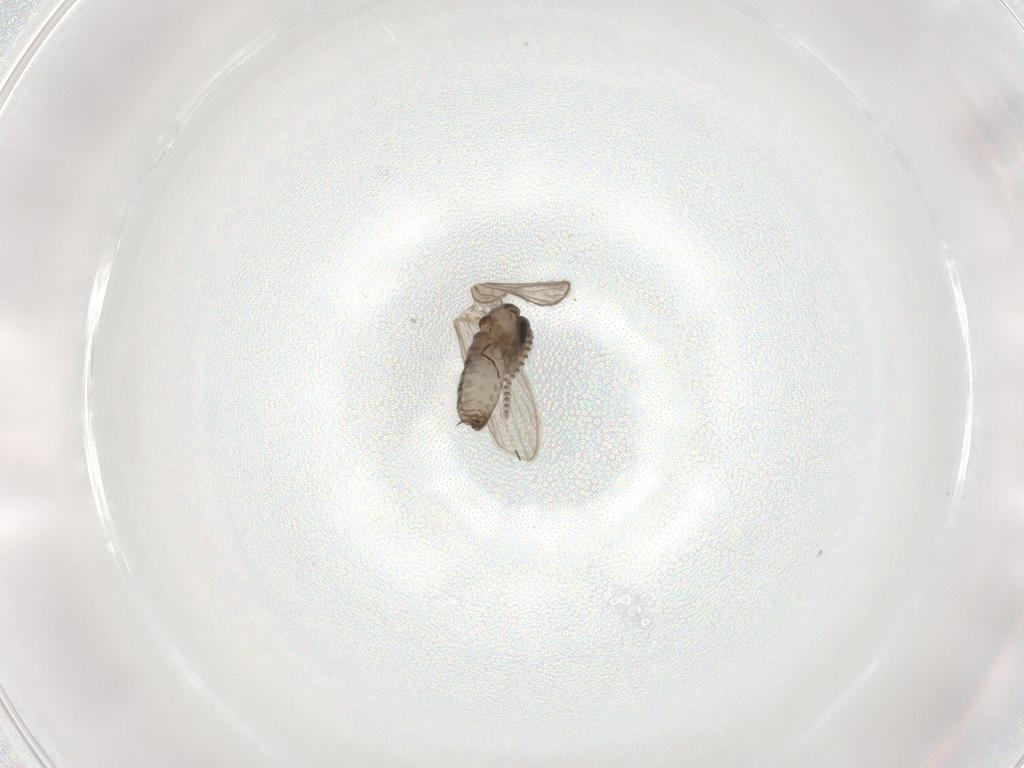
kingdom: Animalia
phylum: Arthropoda
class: Insecta
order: Diptera
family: Psychodidae
